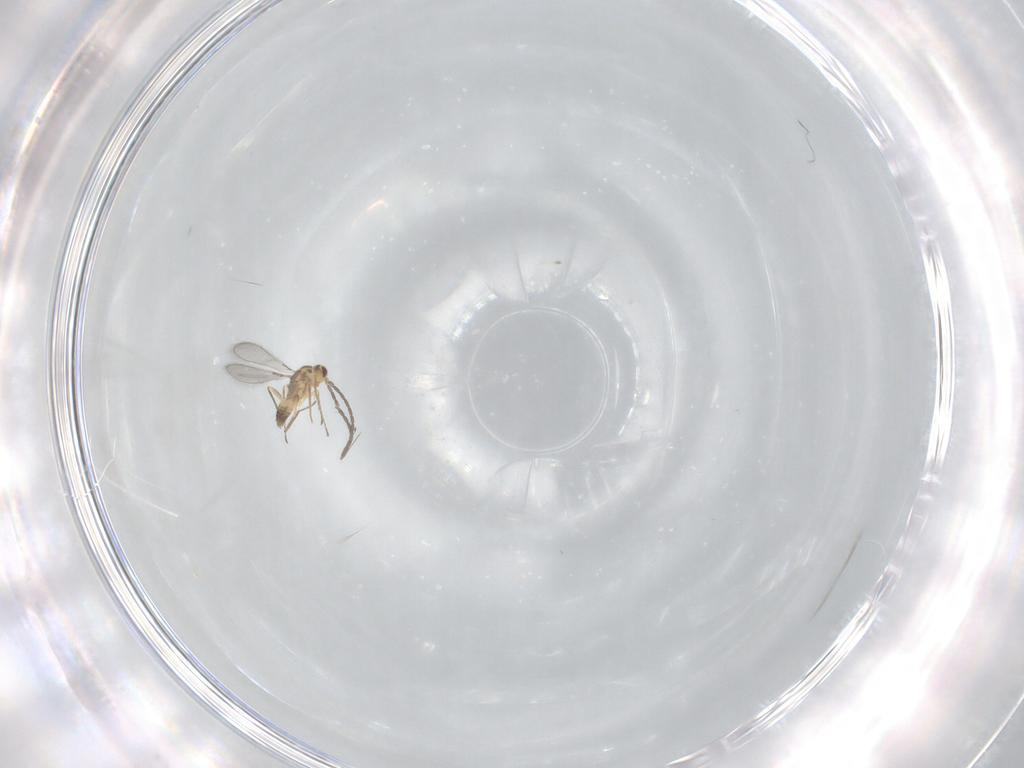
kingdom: Animalia
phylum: Arthropoda
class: Insecta
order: Hymenoptera
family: Mymaridae
